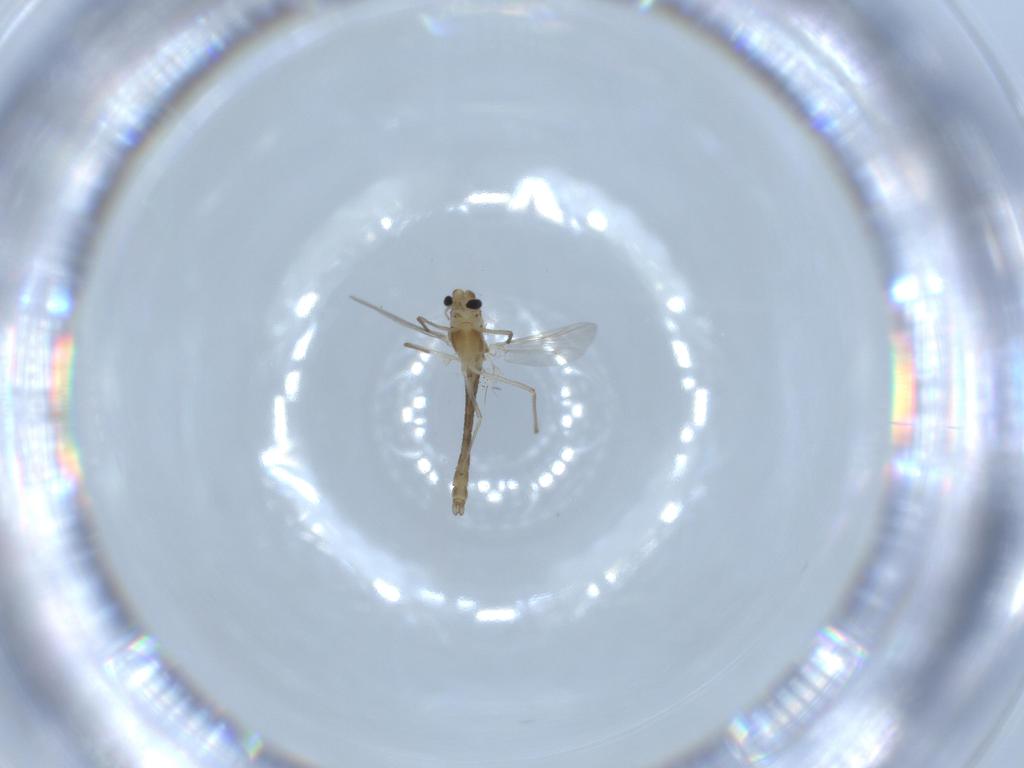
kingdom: Animalia
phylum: Arthropoda
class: Insecta
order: Diptera
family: Chironomidae
